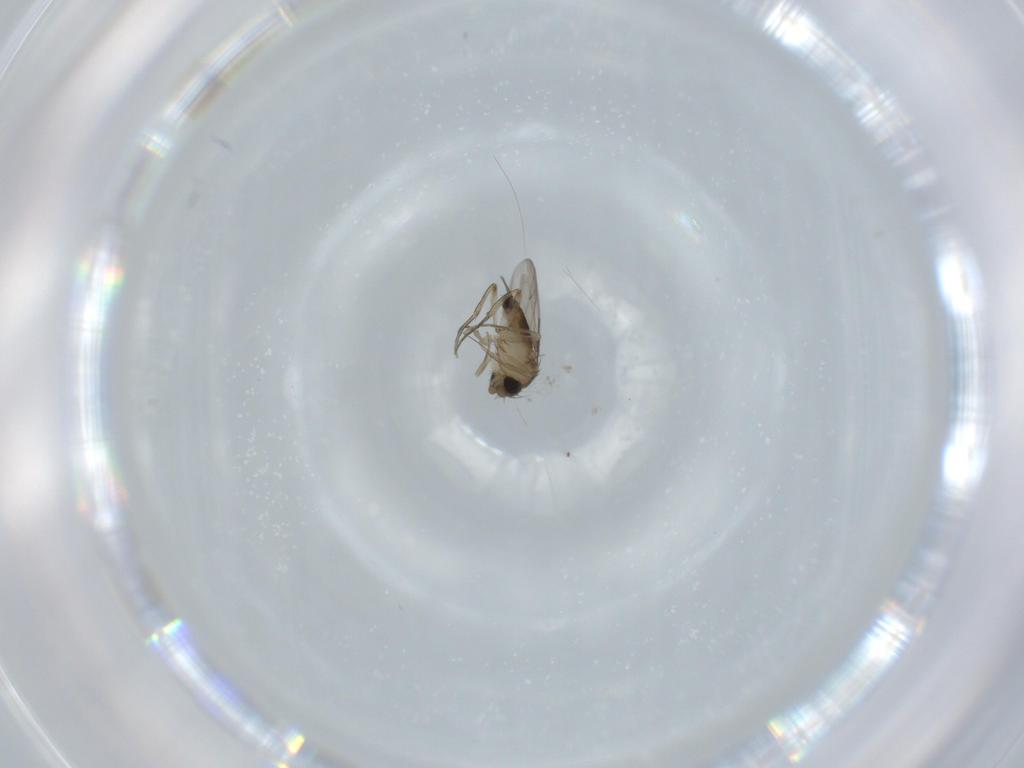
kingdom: Animalia
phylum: Arthropoda
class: Insecta
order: Diptera
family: Phoridae
